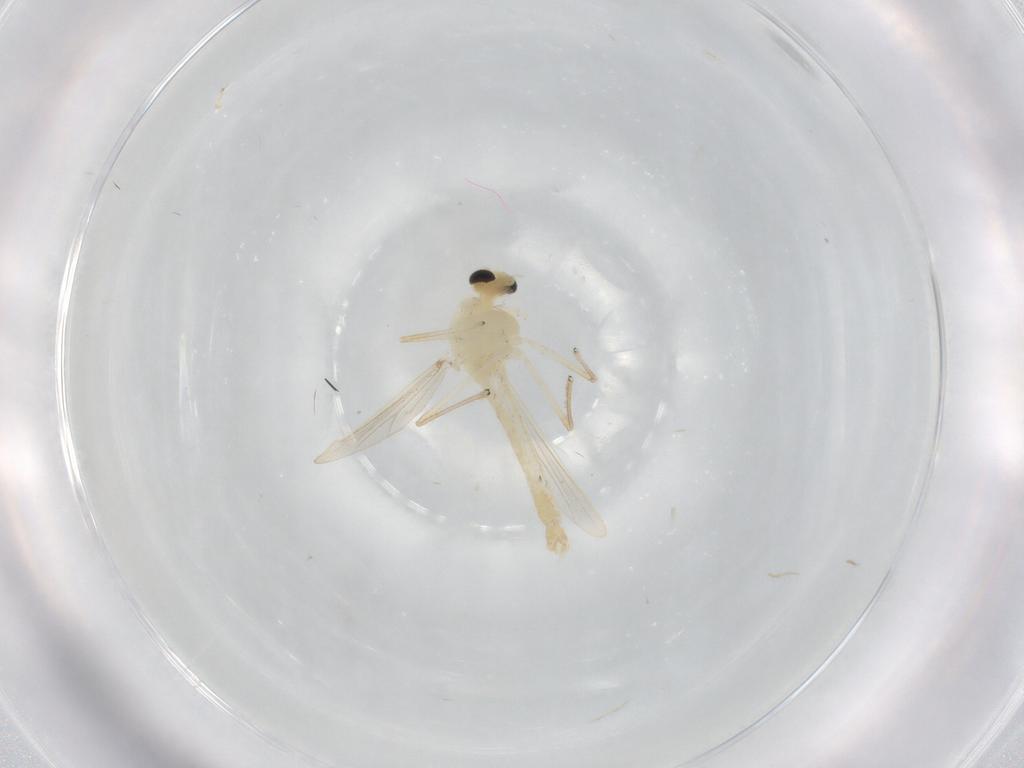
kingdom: Animalia
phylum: Arthropoda
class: Insecta
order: Diptera
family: Chironomidae
